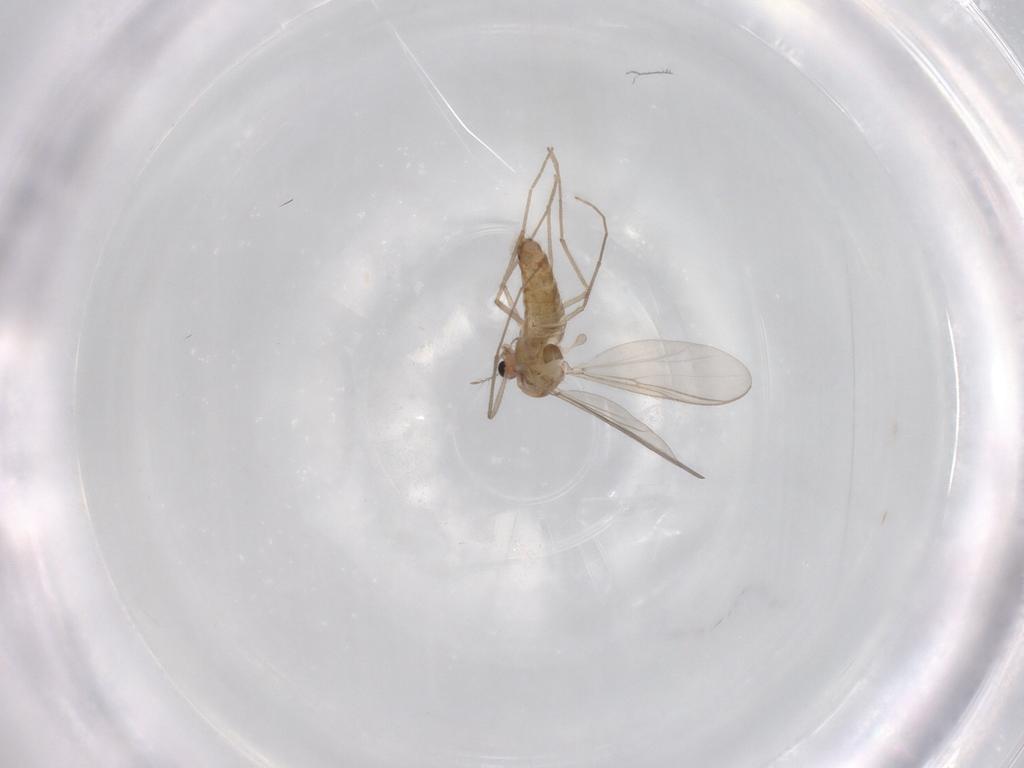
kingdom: Animalia
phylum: Arthropoda
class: Insecta
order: Diptera
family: Chironomidae
